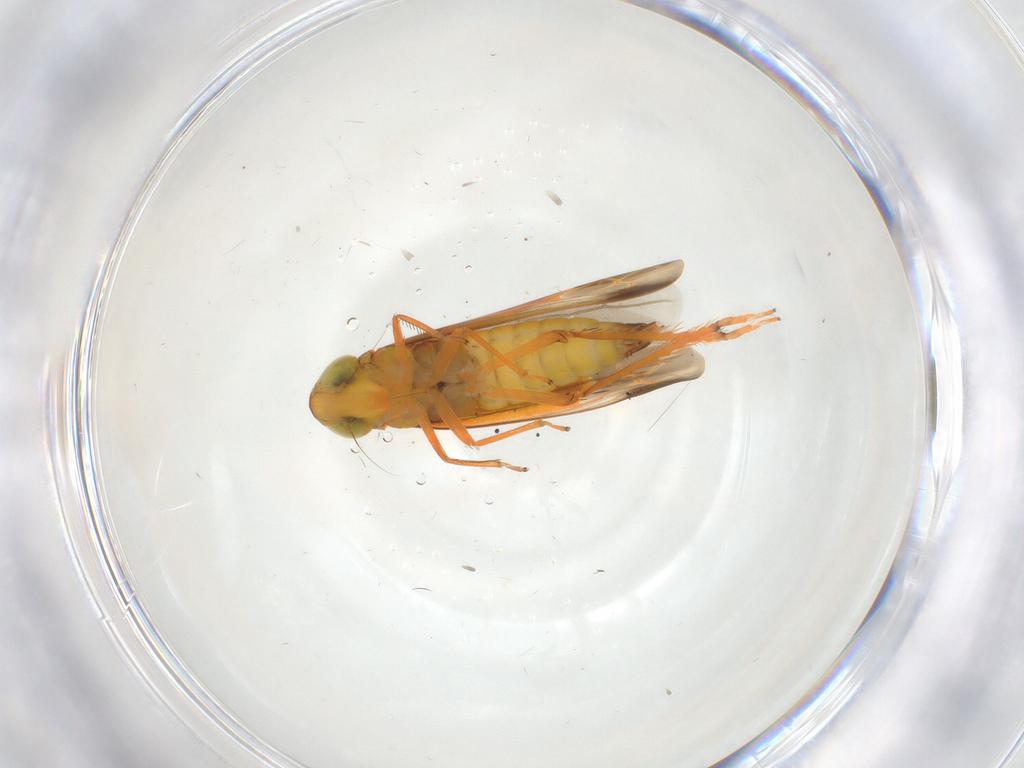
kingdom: Animalia
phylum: Arthropoda
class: Insecta
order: Hemiptera
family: Cicadellidae
